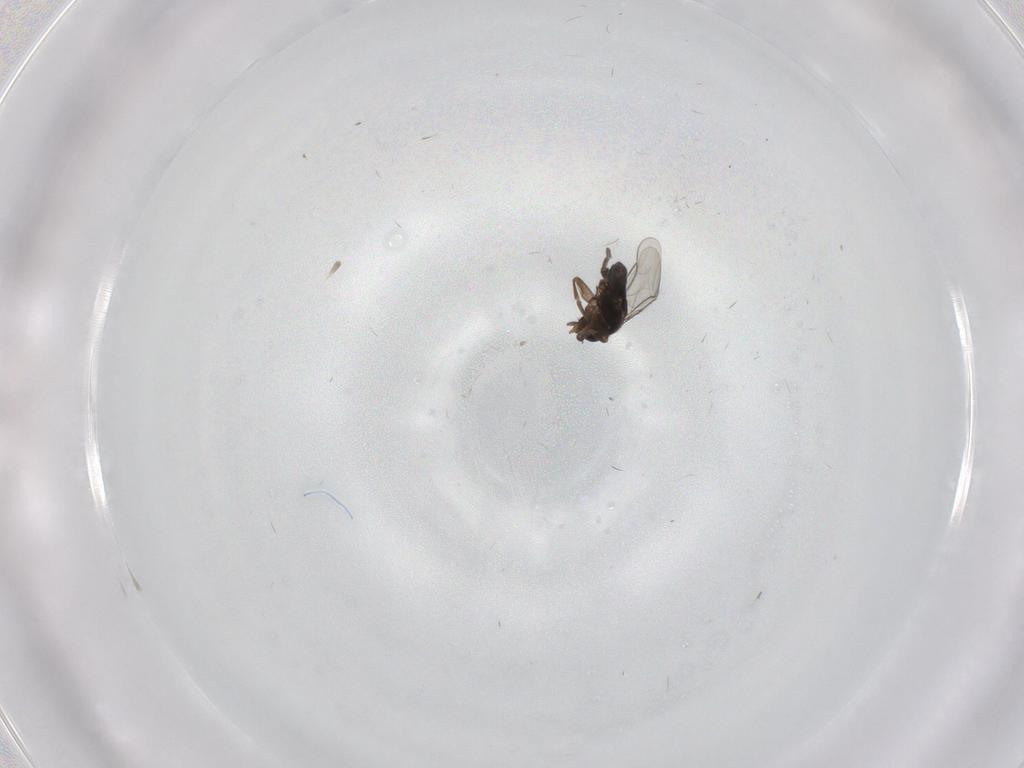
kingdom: Animalia
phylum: Arthropoda
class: Insecta
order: Diptera
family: Phoridae
